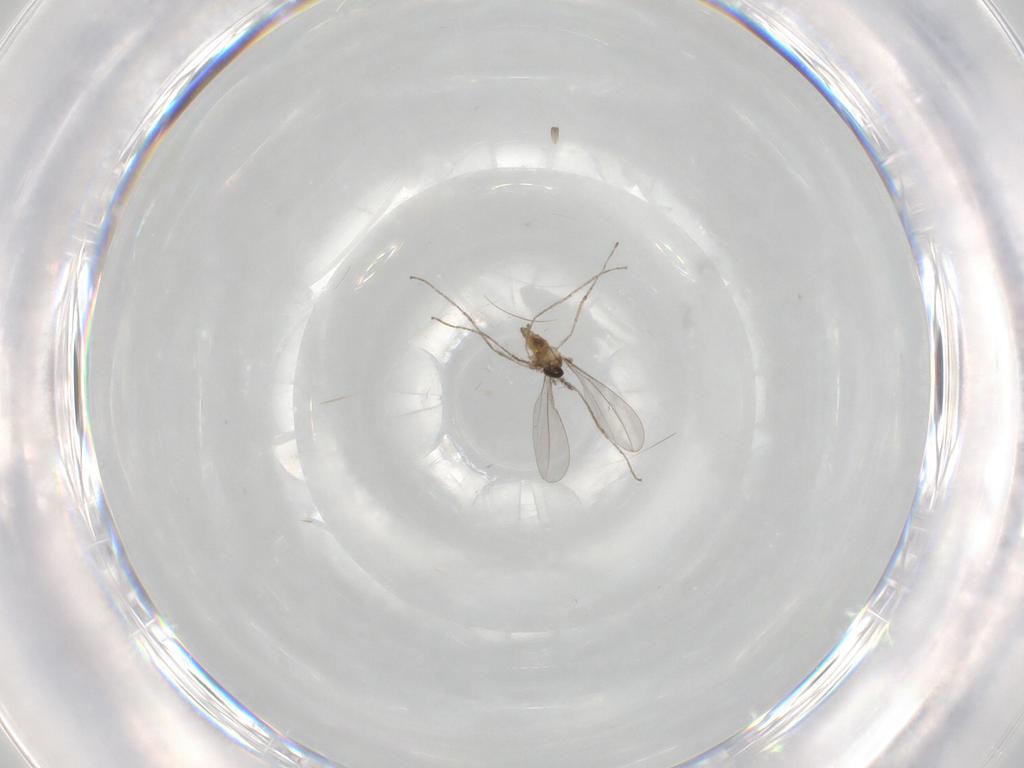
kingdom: Animalia
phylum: Arthropoda
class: Insecta
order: Diptera
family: Cecidomyiidae
